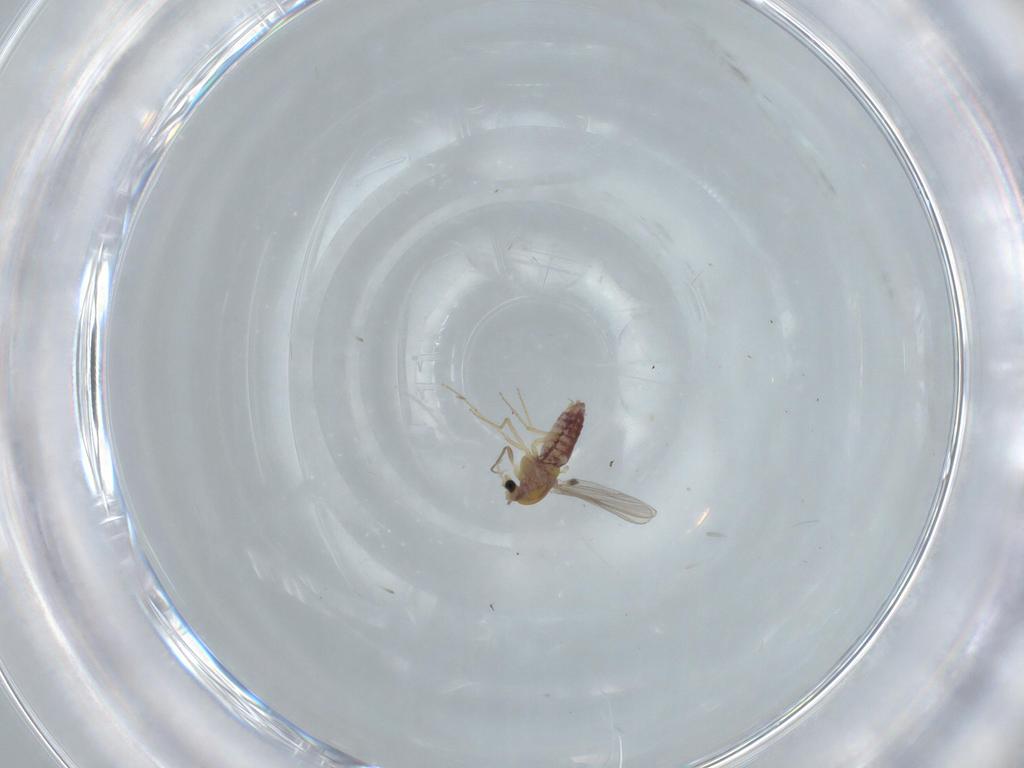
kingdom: Animalia
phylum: Arthropoda
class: Insecta
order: Diptera
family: Chironomidae
